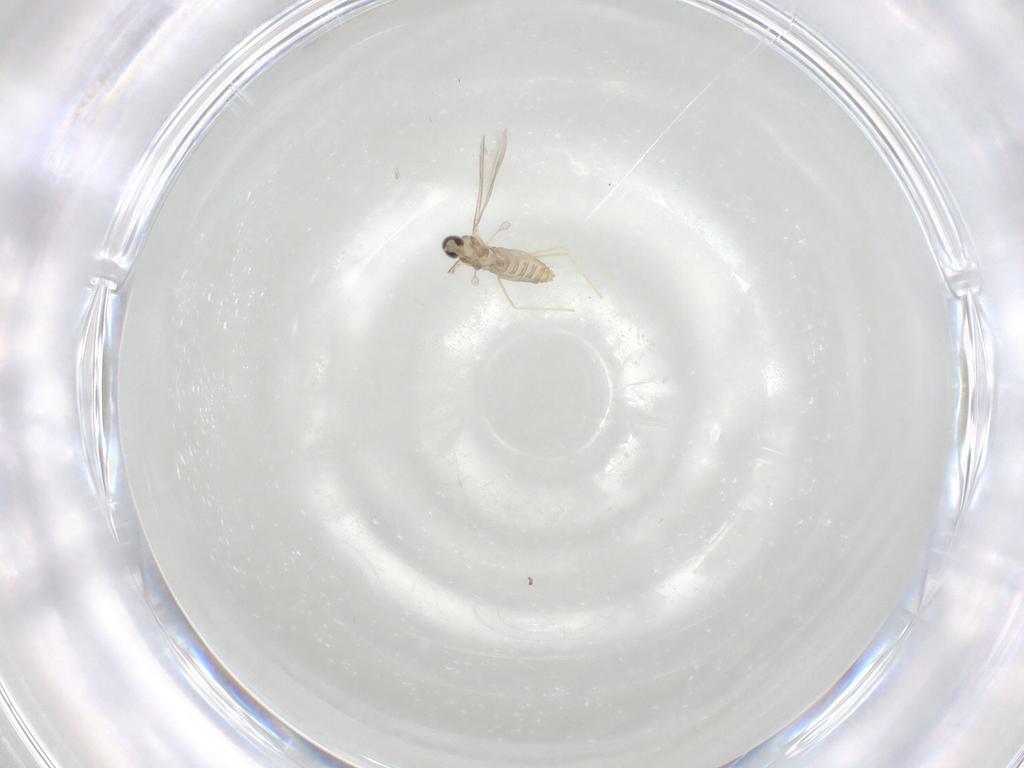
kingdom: Animalia
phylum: Arthropoda
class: Insecta
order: Diptera
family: Cecidomyiidae
